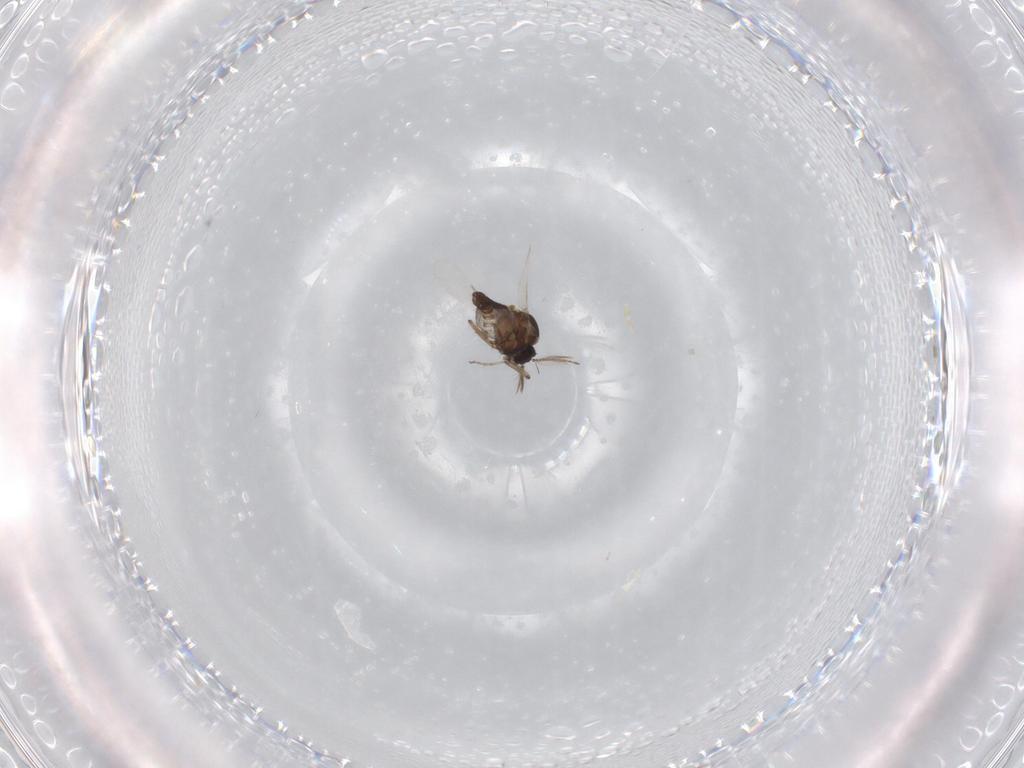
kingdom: Animalia
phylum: Arthropoda
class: Insecta
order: Diptera
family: Ceratopogonidae
